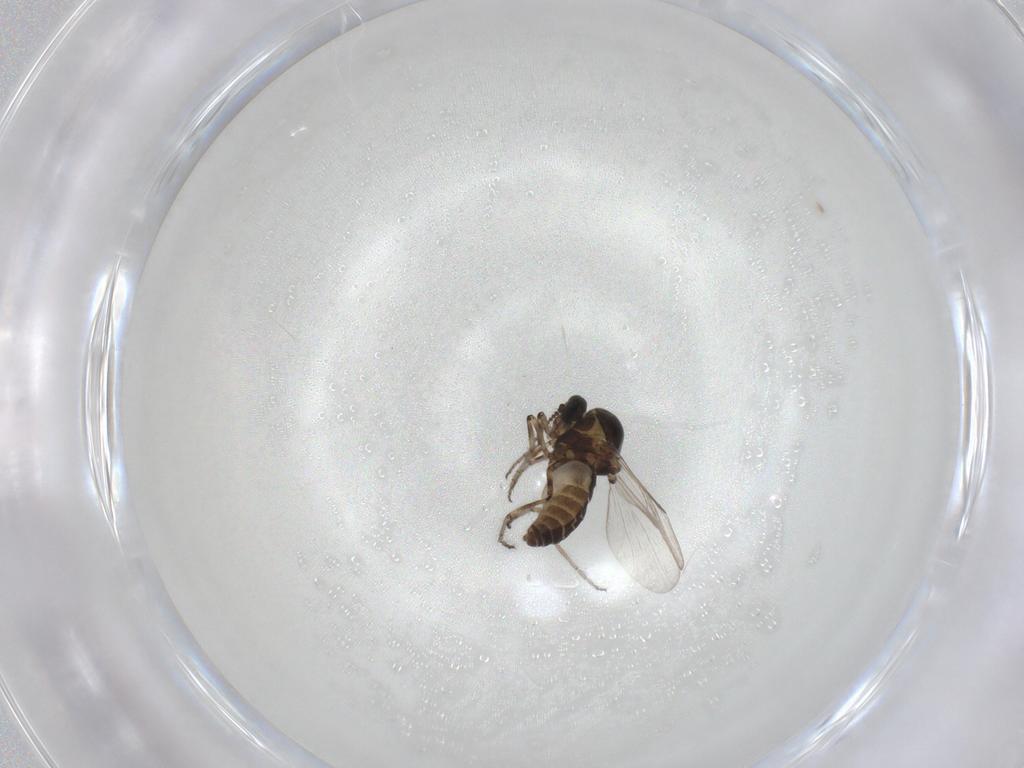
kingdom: Animalia
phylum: Arthropoda
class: Insecta
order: Diptera
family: Ceratopogonidae
